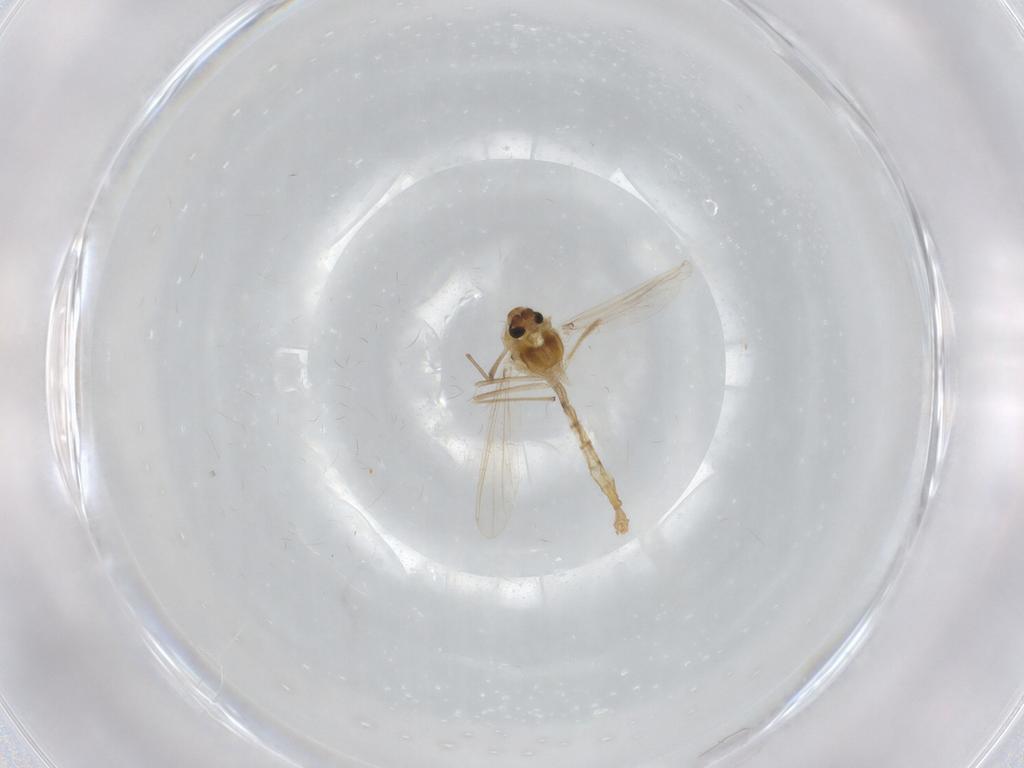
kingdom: Animalia
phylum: Arthropoda
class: Insecta
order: Diptera
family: Chironomidae
